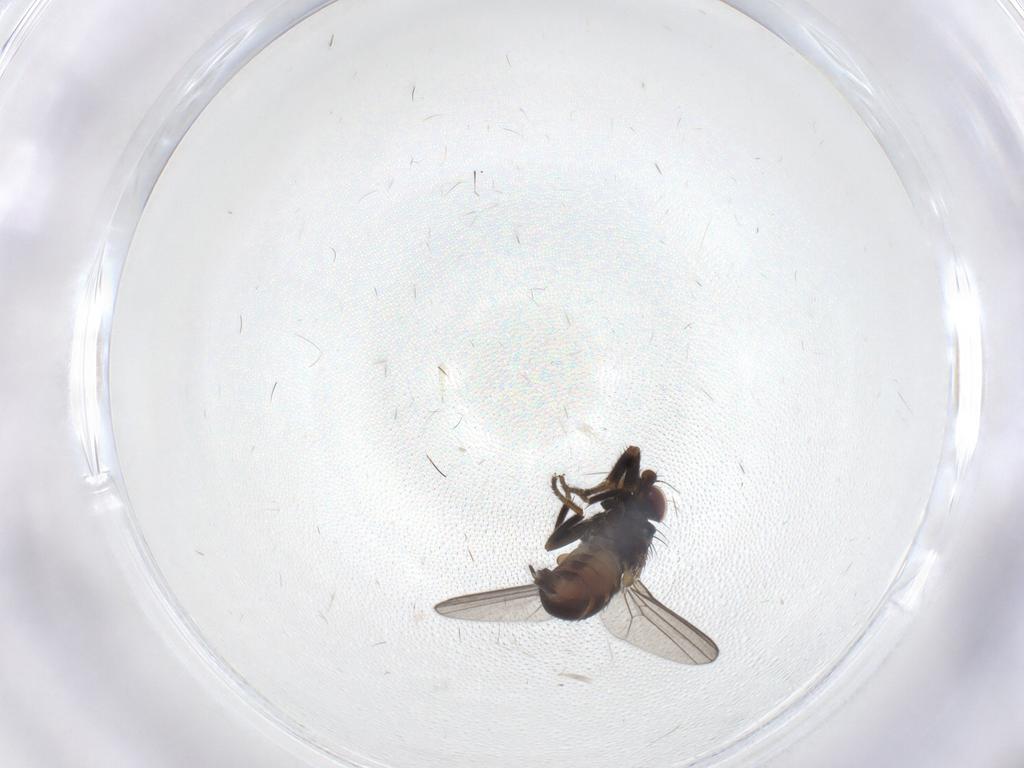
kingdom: Animalia
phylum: Arthropoda
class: Insecta
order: Diptera
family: Milichiidae
